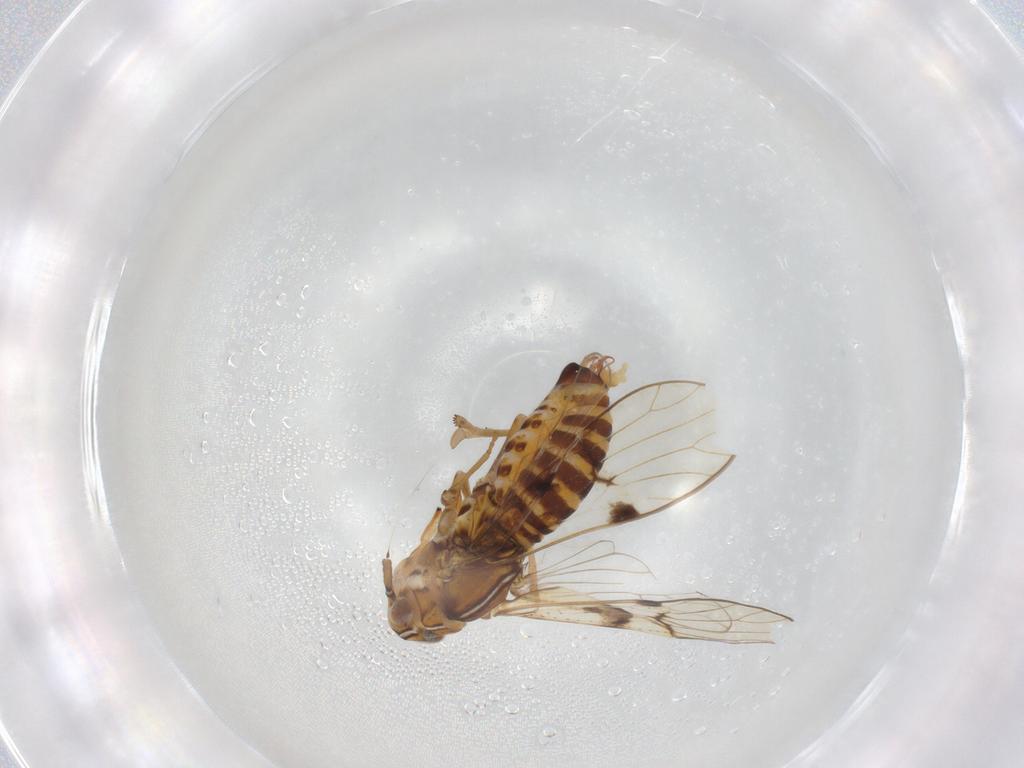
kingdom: Animalia
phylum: Arthropoda
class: Insecta
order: Hemiptera
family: Delphacidae
